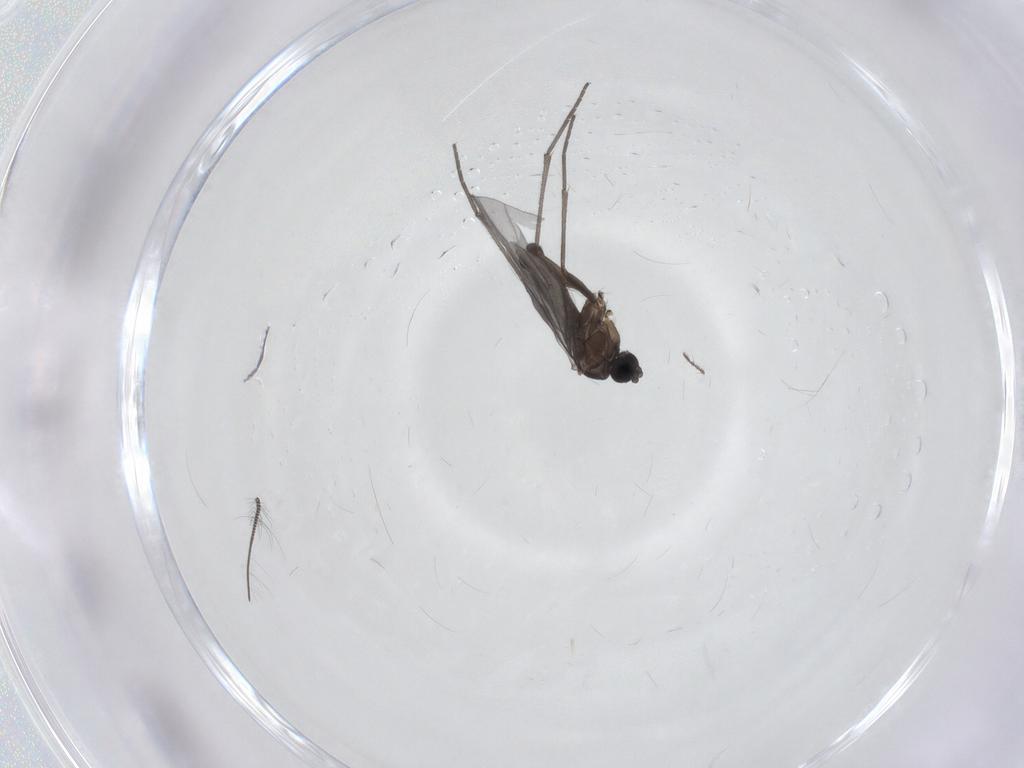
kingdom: Animalia
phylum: Arthropoda
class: Insecta
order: Diptera
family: Sciaridae
